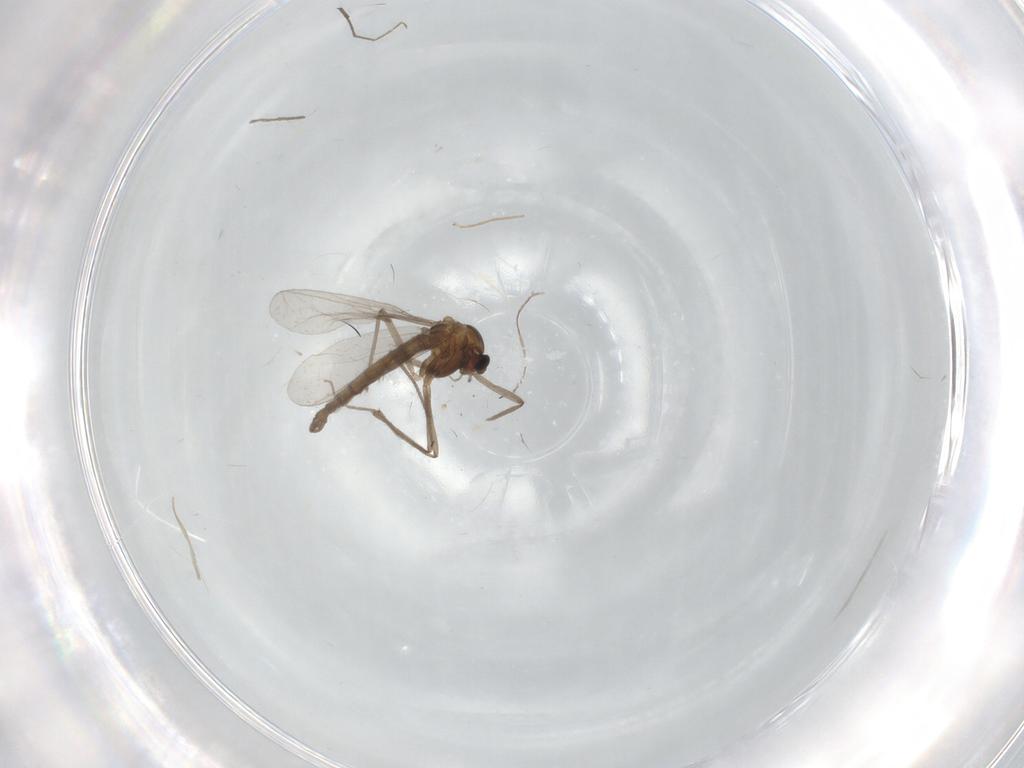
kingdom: Animalia
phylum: Arthropoda
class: Insecta
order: Diptera
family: Chironomidae
